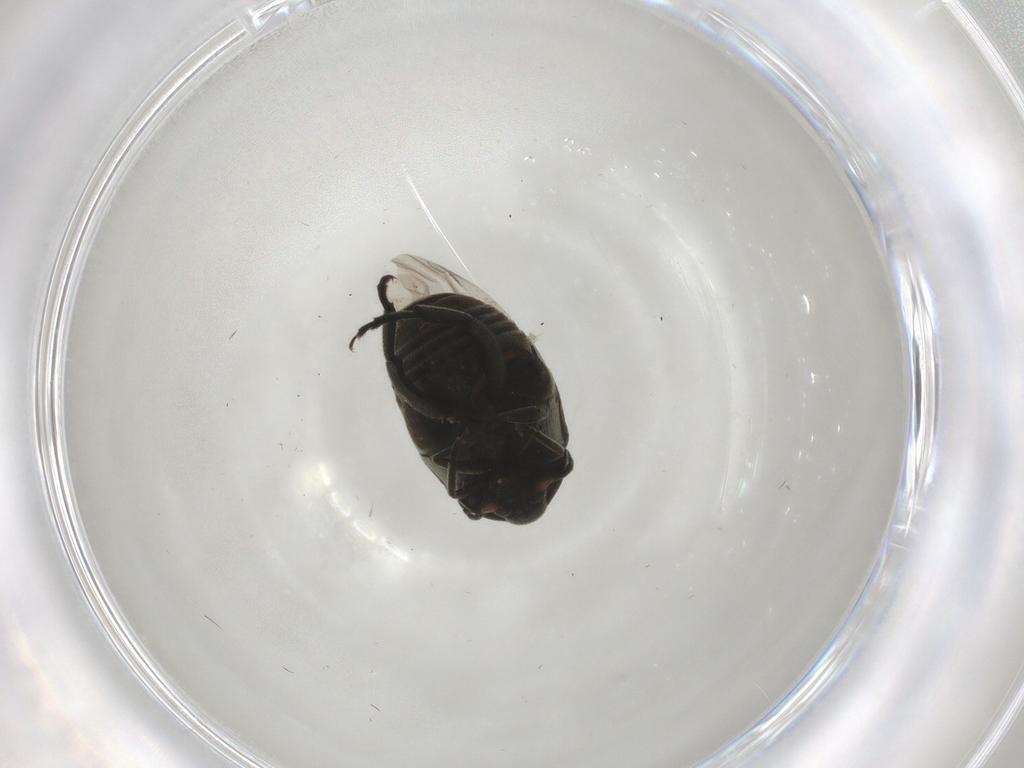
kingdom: Animalia
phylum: Arthropoda
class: Insecta
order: Coleoptera
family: Chrysomelidae
